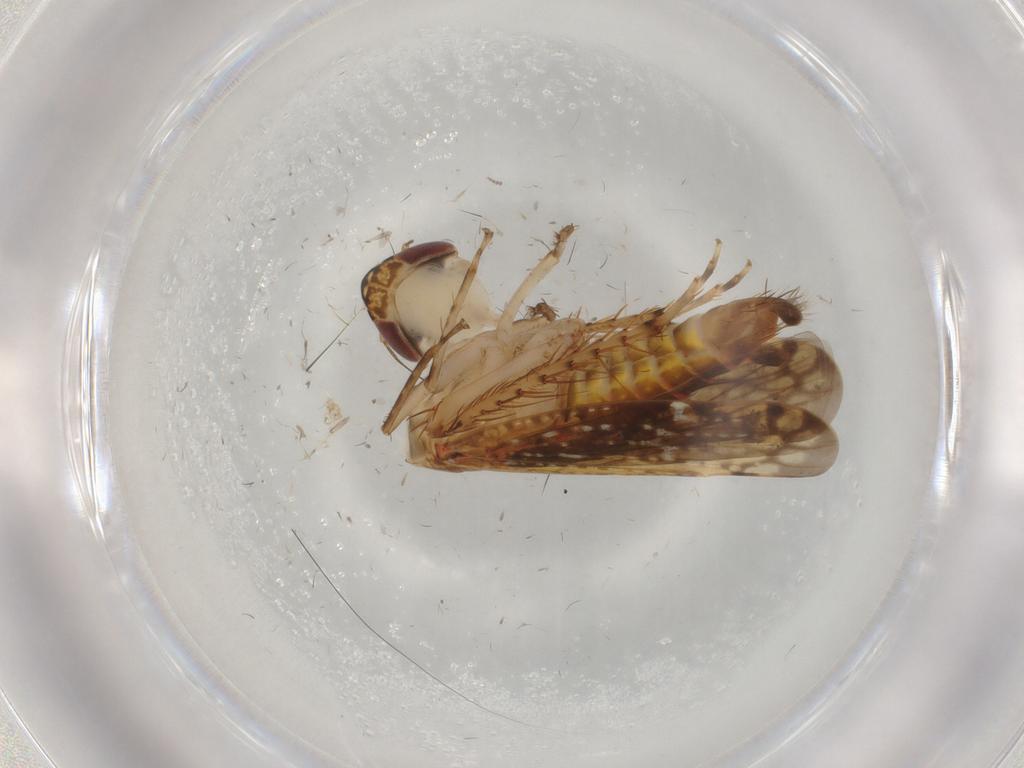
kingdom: Animalia
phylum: Arthropoda
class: Insecta
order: Hemiptera
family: Cicadellidae
